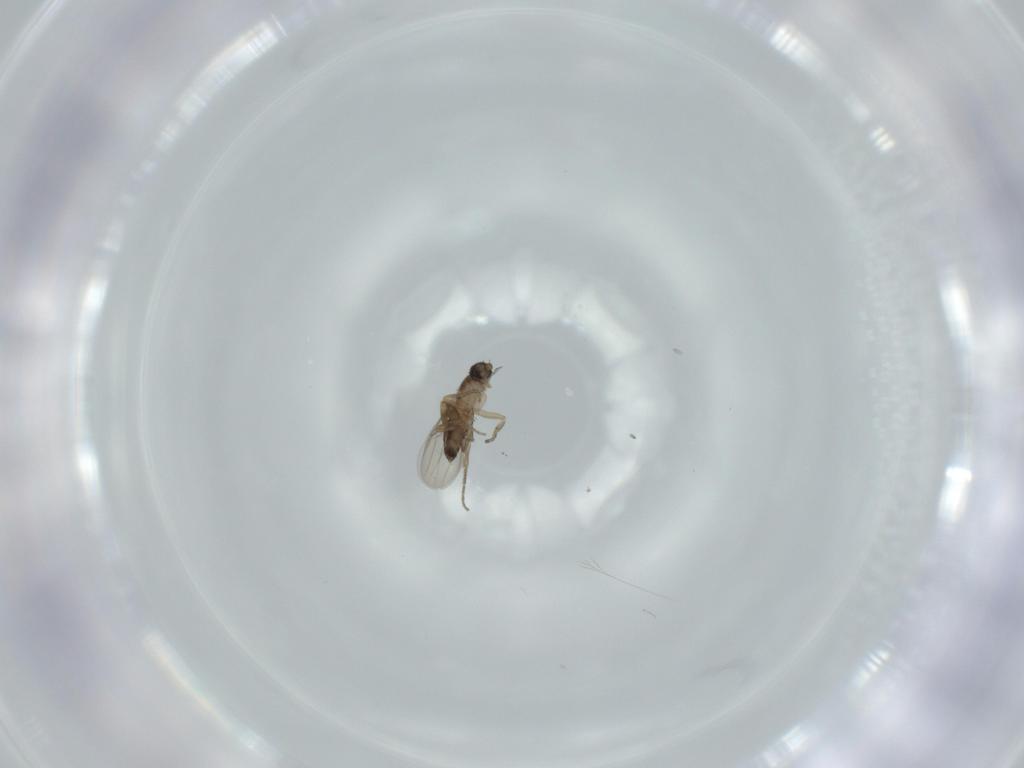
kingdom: Animalia
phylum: Arthropoda
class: Insecta
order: Diptera
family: Phoridae
